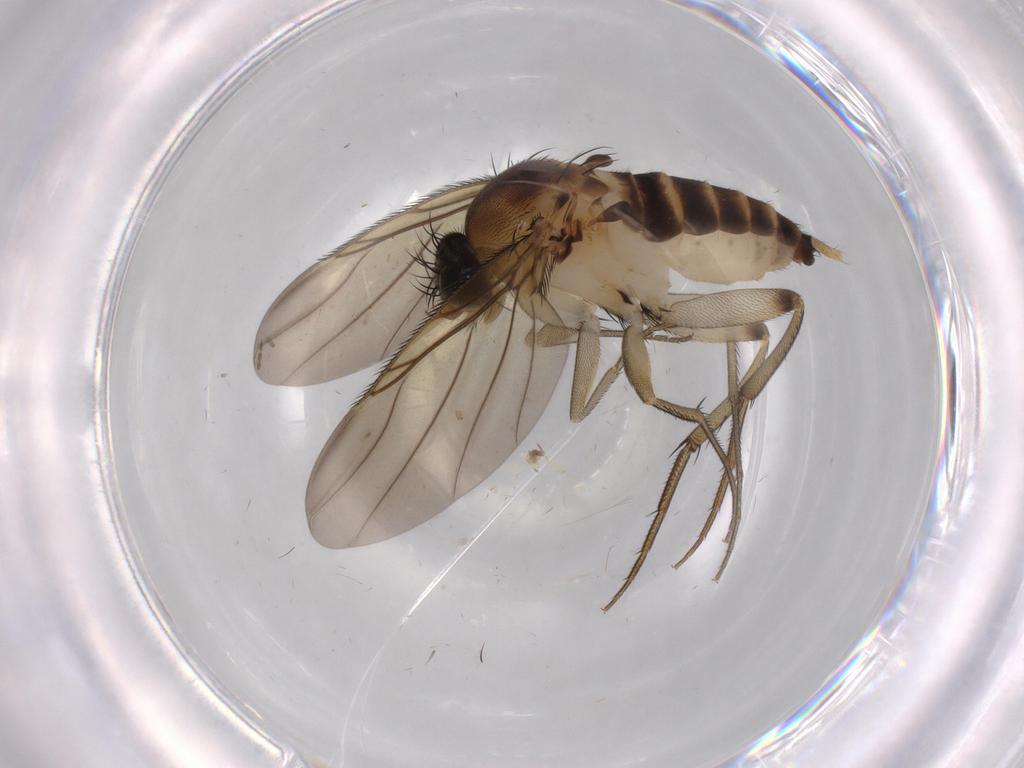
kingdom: Animalia
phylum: Arthropoda
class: Insecta
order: Diptera
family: Phoridae
